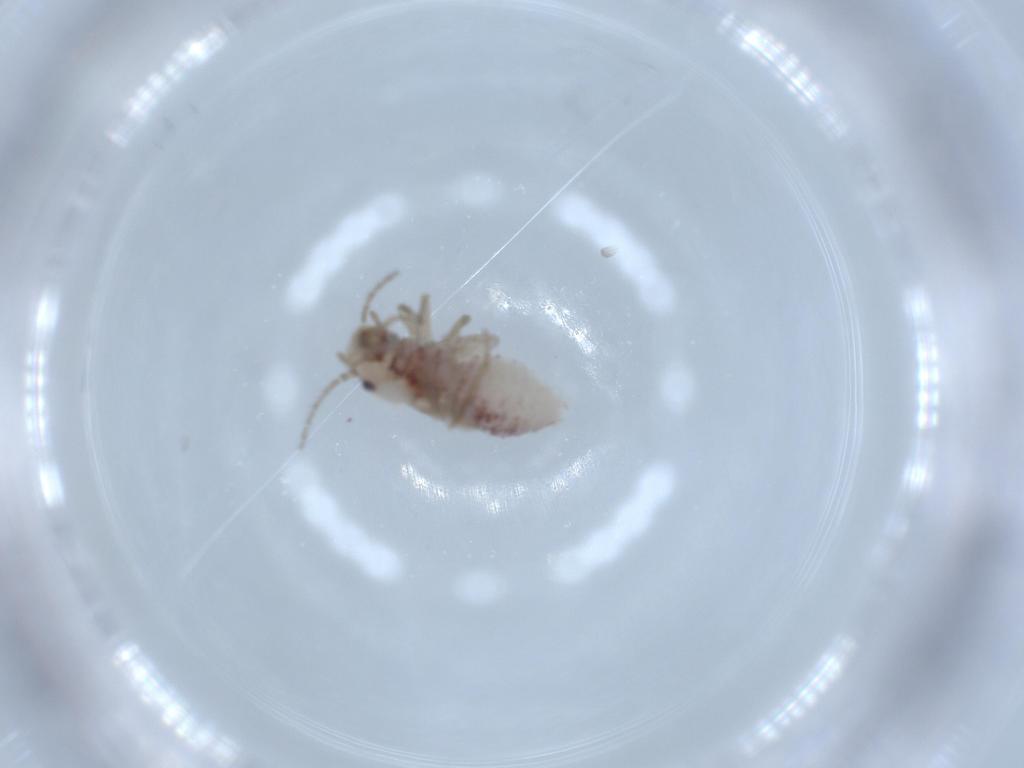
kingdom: Animalia
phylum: Arthropoda
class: Insecta
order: Psocodea
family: Amphipsocidae
